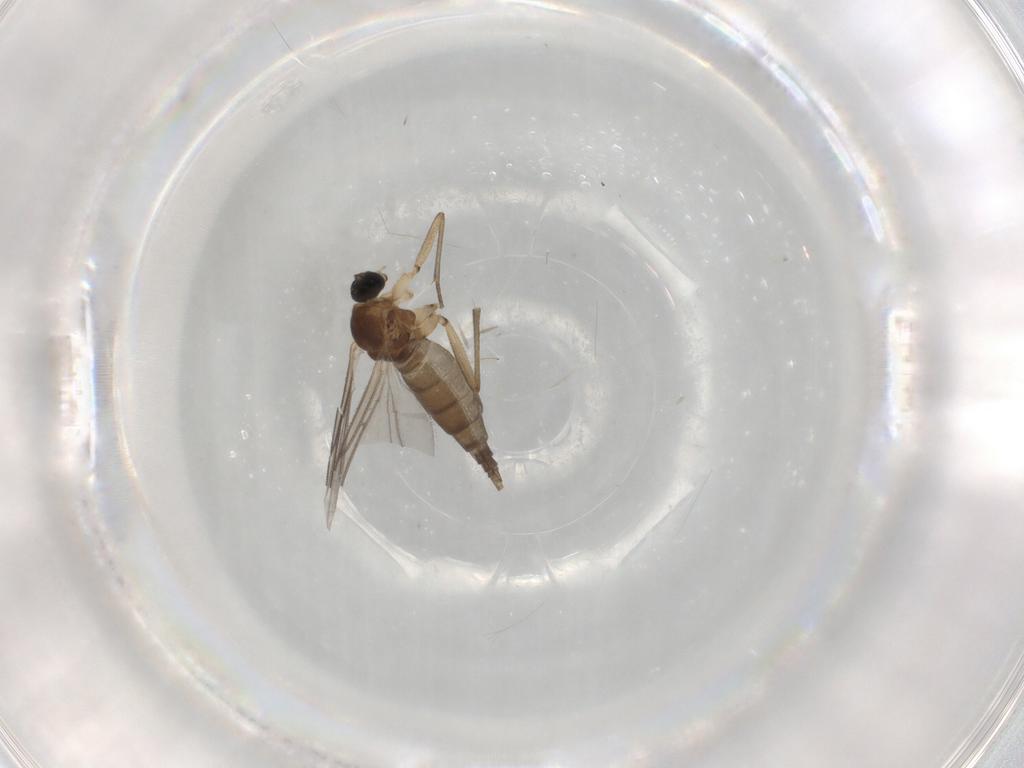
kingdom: Animalia
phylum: Arthropoda
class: Insecta
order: Diptera
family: Sciaridae
